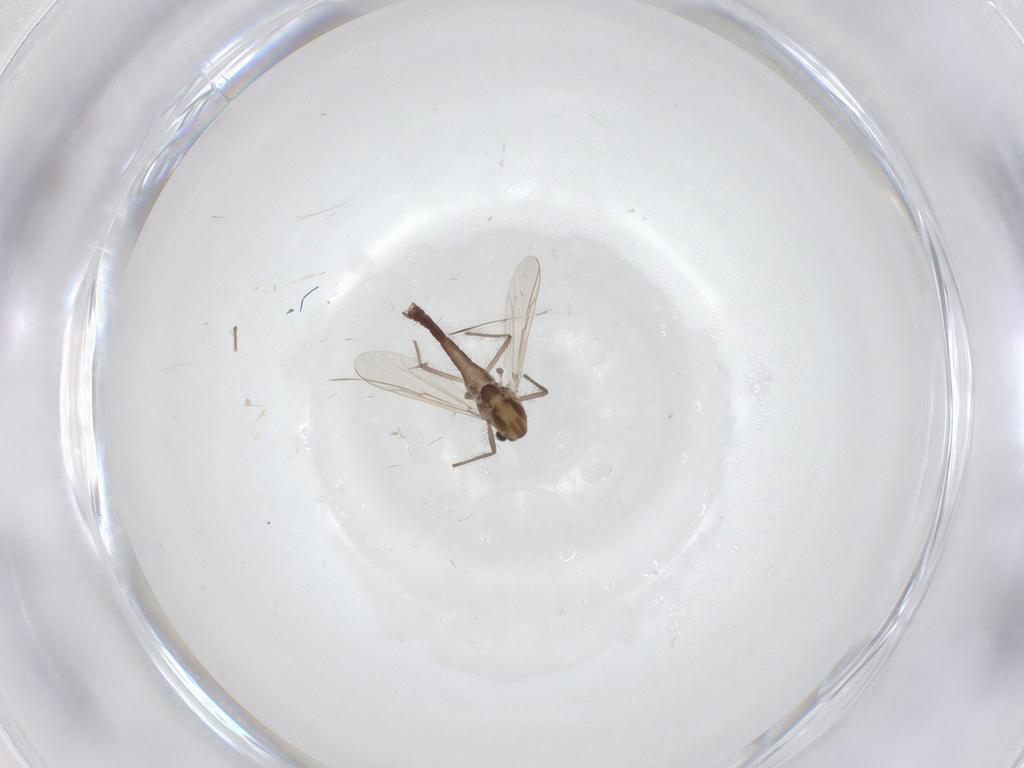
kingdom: Animalia
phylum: Arthropoda
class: Insecta
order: Diptera
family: Chironomidae
